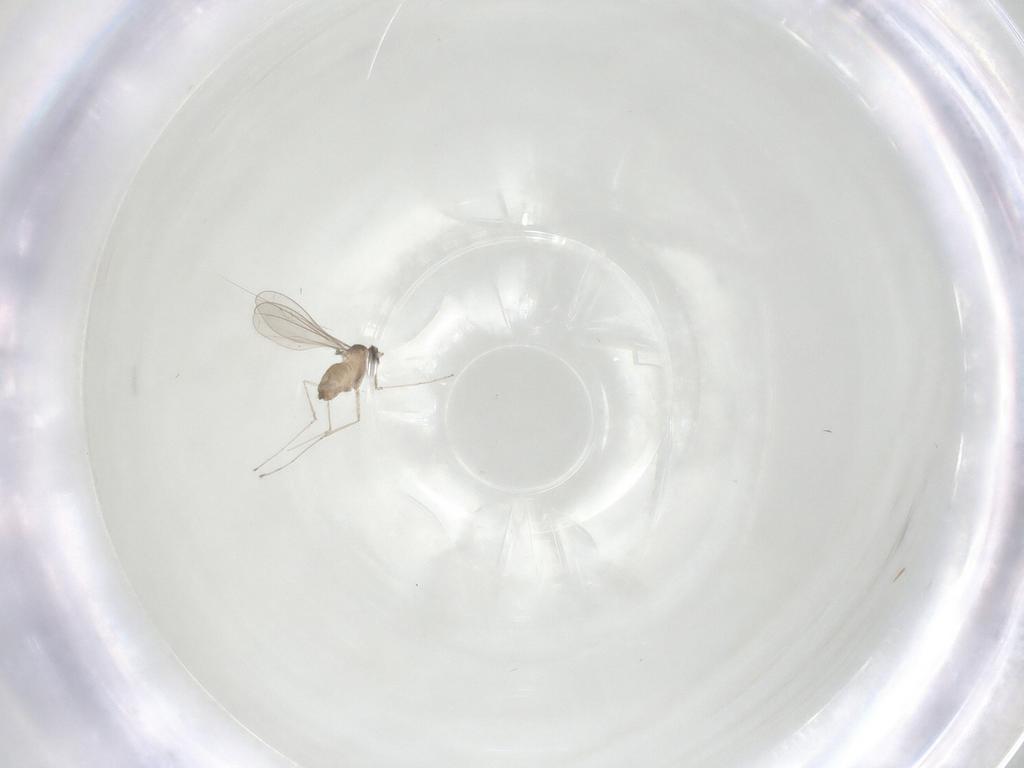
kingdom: Animalia
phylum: Arthropoda
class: Insecta
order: Diptera
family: Cecidomyiidae
